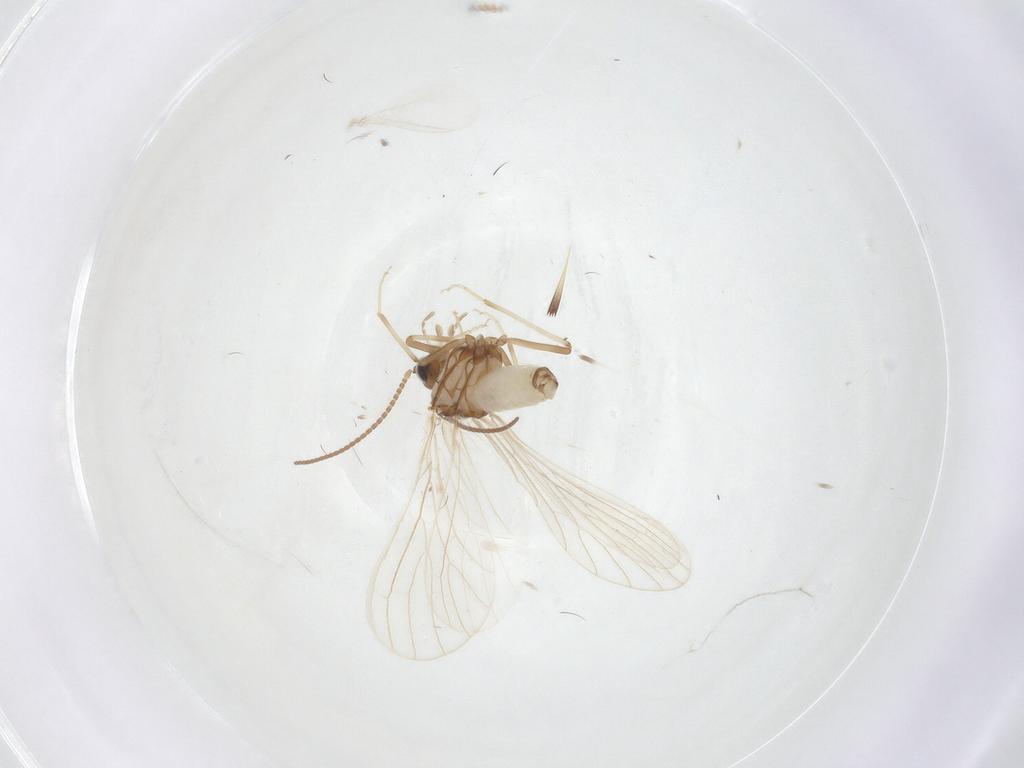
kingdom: Animalia
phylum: Arthropoda
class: Insecta
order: Neuroptera
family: Coniopterygidae
